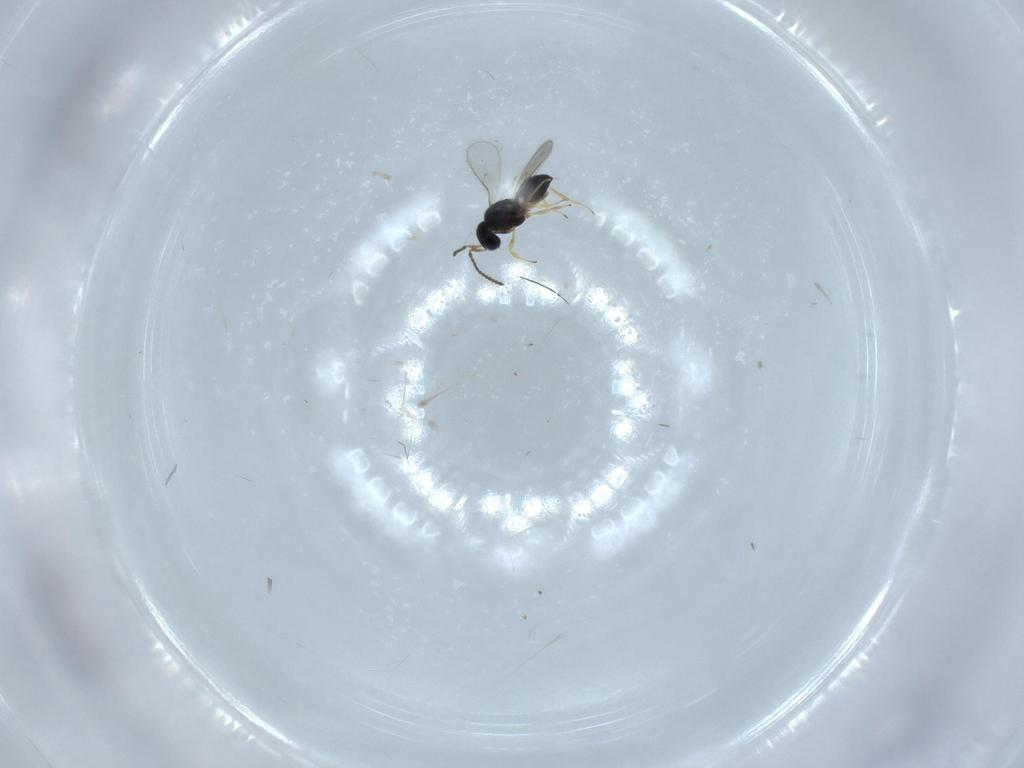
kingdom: Animalia
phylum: Arthropoda
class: Insecta
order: Hymenoptera
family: Scelionidae
